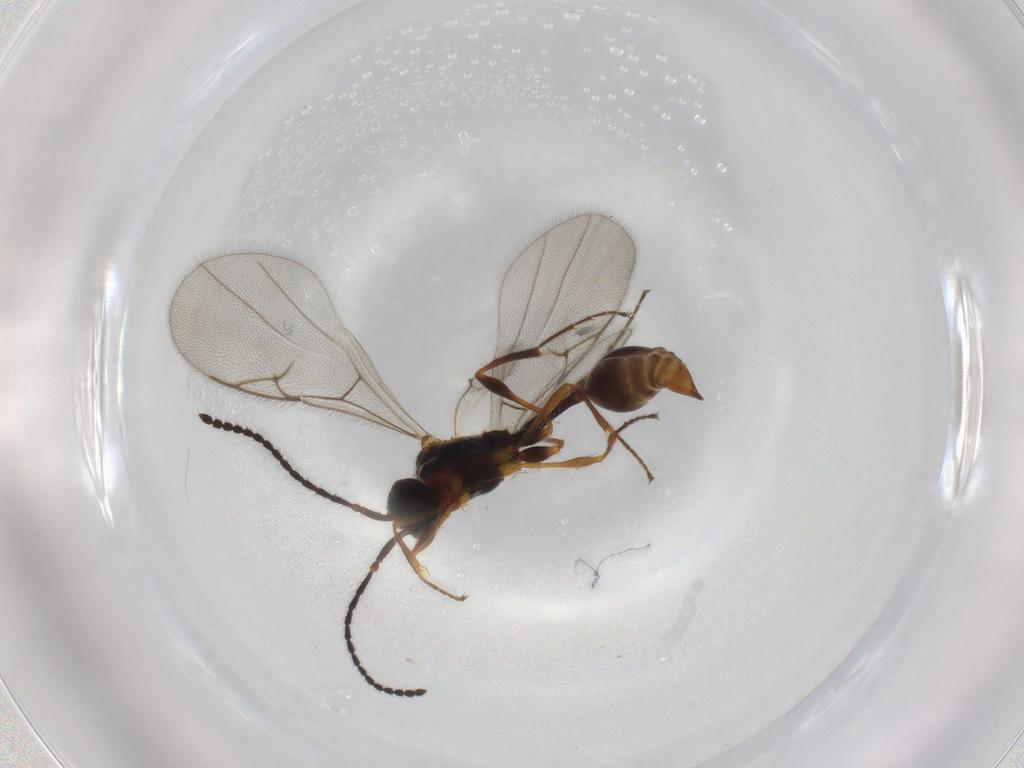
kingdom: Animalia
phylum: Arthropoda
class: Insecta
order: Hymenoptera
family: Diapriidae
